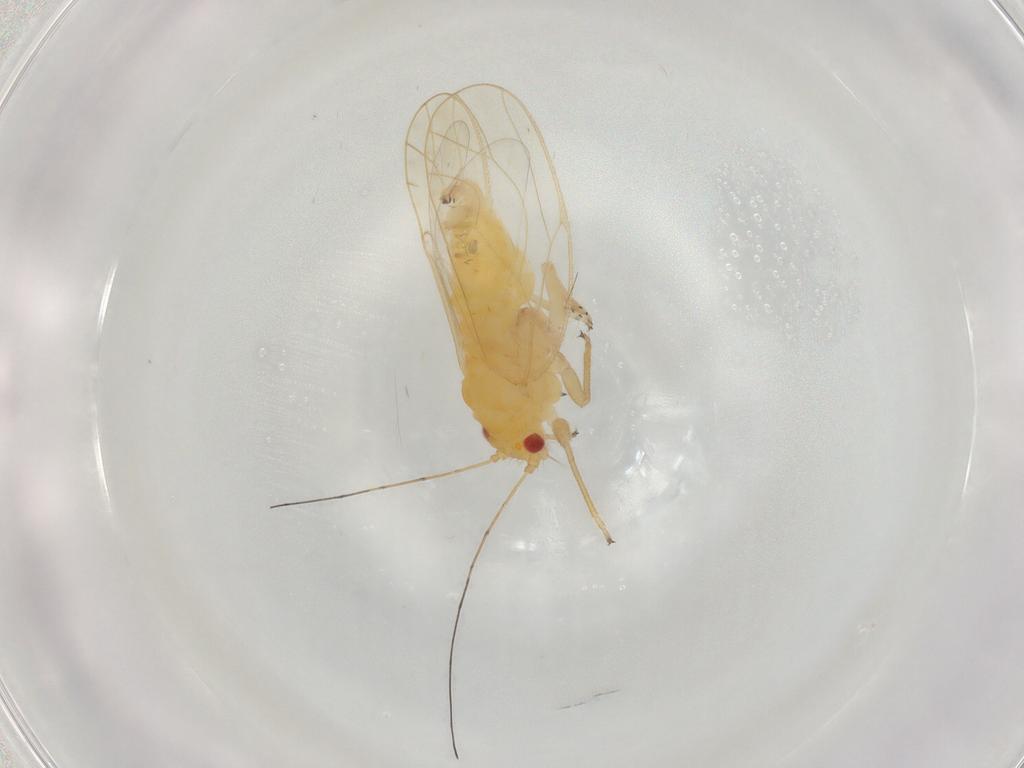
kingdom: Animalia
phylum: Arthropoda
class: Insecta
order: Hemiptera
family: Psyllidae
